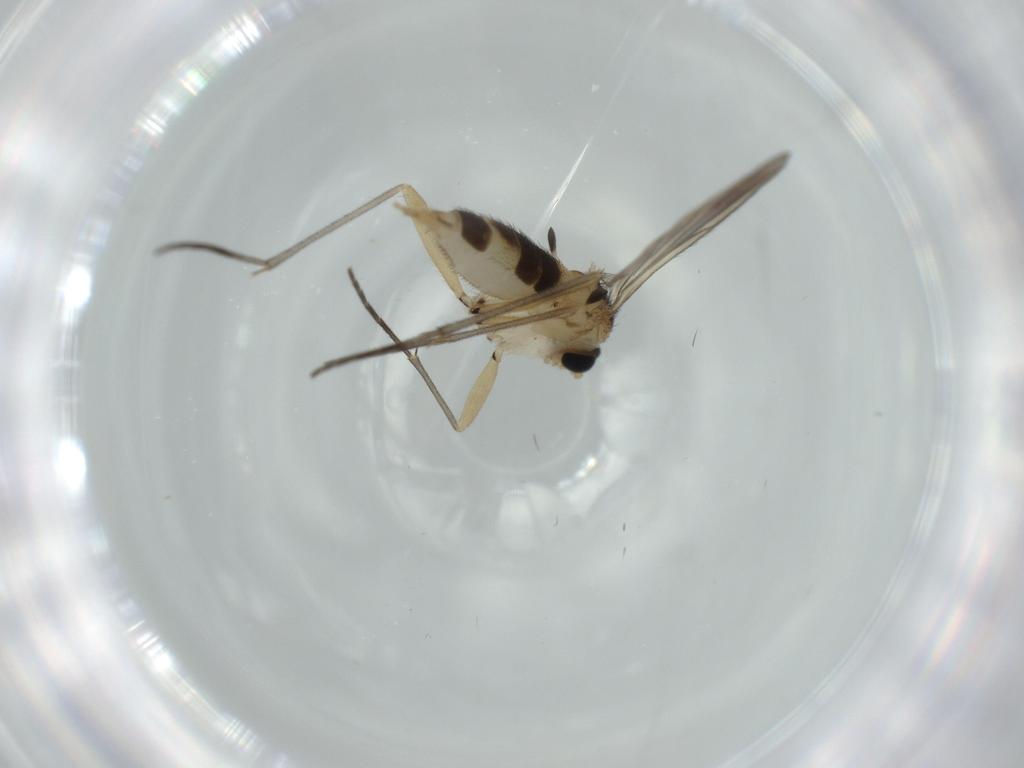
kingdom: Animalia
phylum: Arthropoda
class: Insecta
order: Diptera
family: Sciaridae
